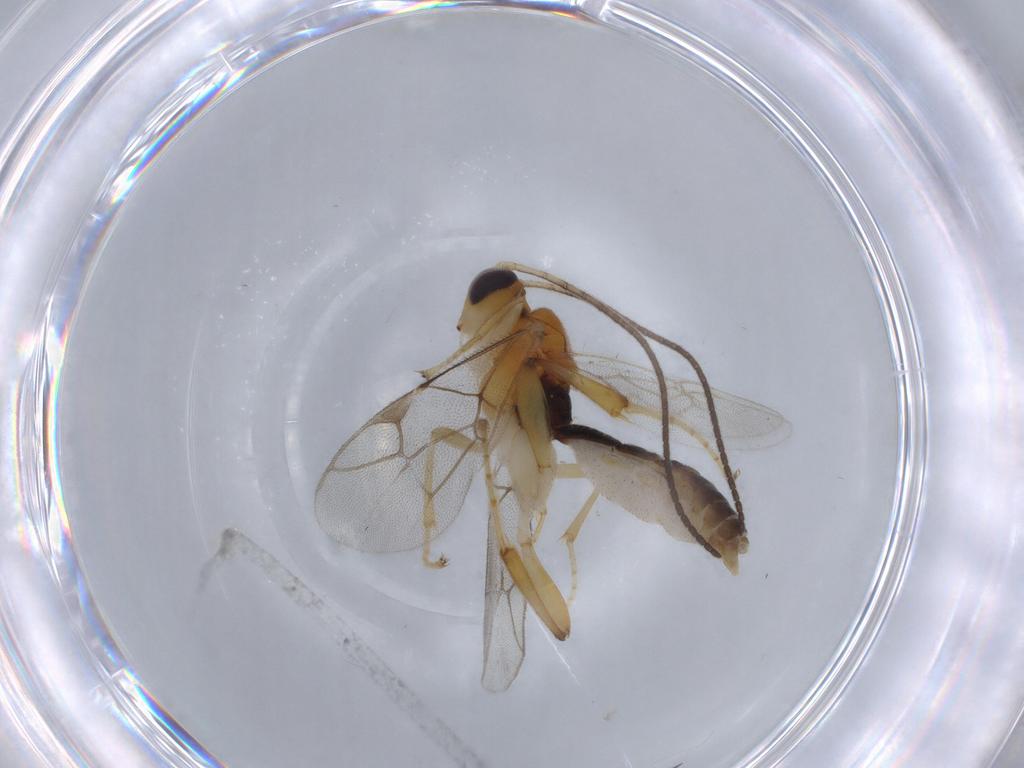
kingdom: Animalia
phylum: Arthropoda
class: Insecta
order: Hymenoptera
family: Ceraphronidae
